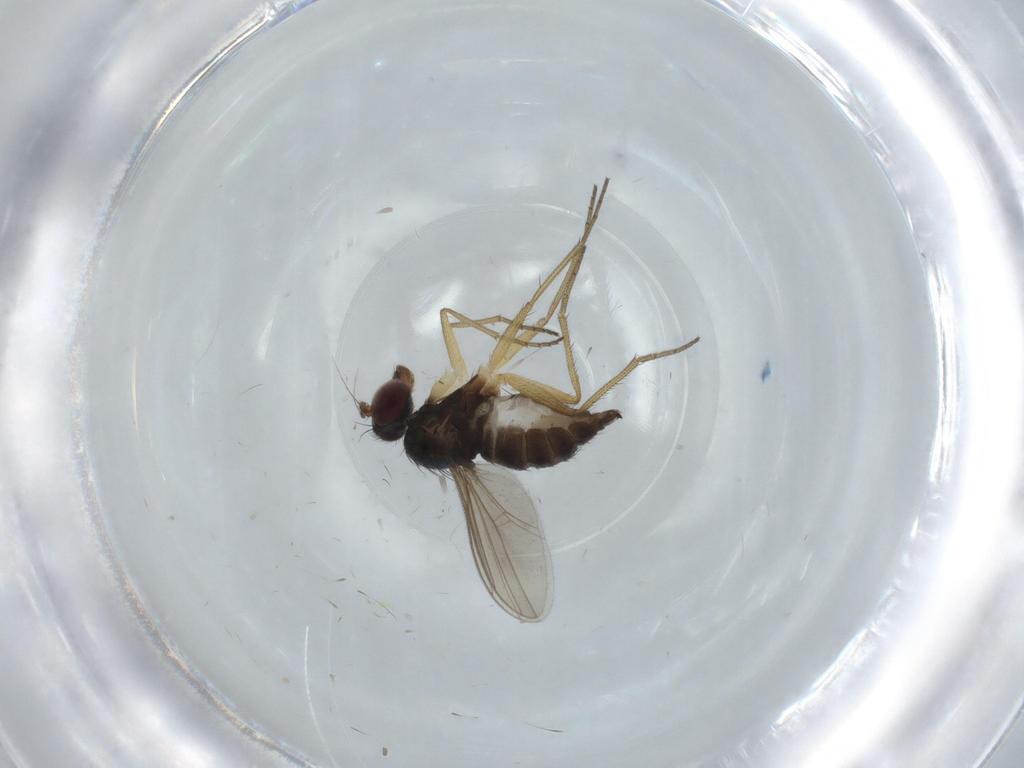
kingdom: Animalia
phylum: Arthropoda
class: Insecta
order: Diptera
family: Dolichopodidae
